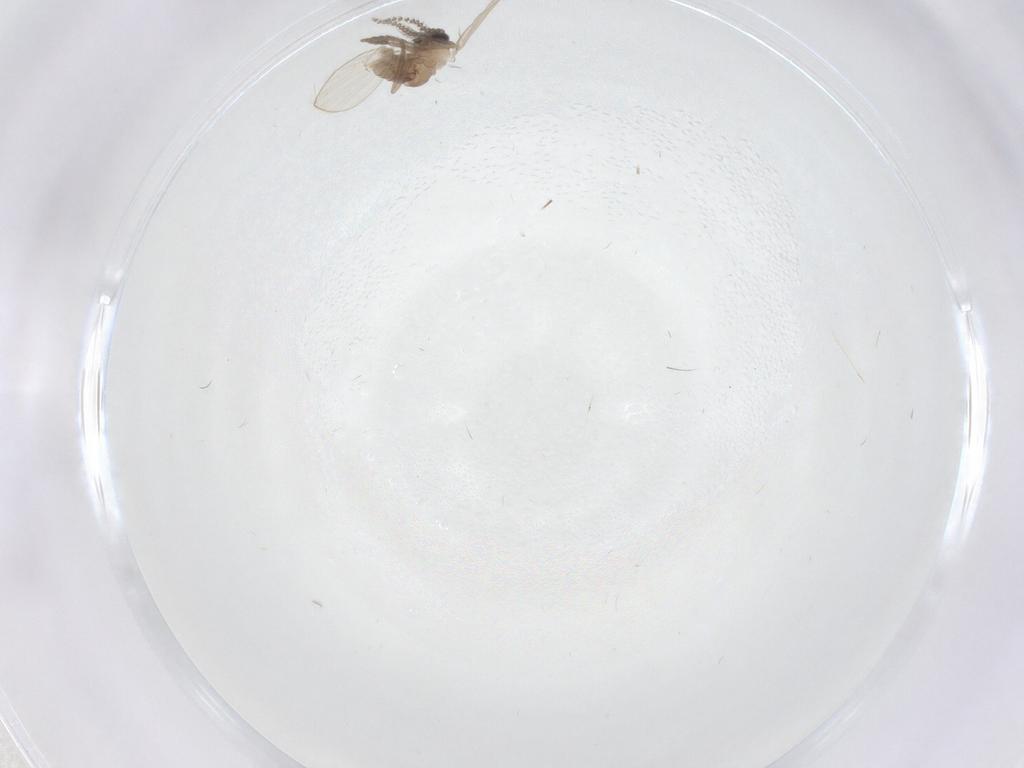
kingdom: Animalia
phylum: Arthropoda
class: Insecta
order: Diptera
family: Psychodidae
